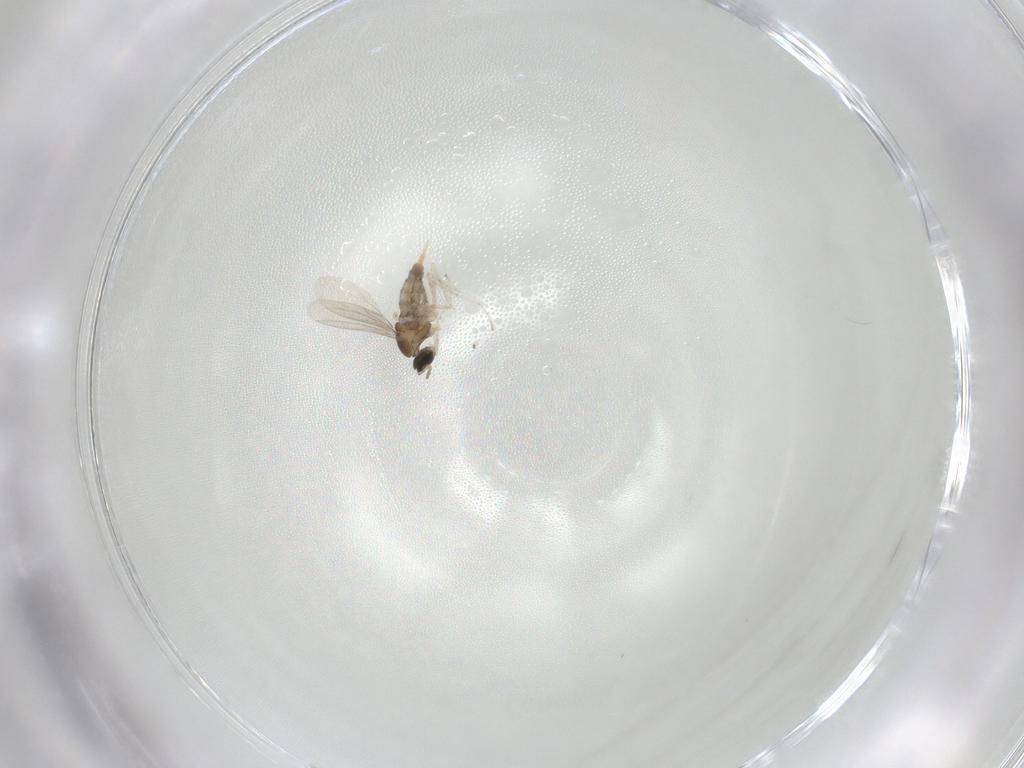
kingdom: Animalia
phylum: Arthropoda
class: Insecta
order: Diptera
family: Cecidomyiidae
